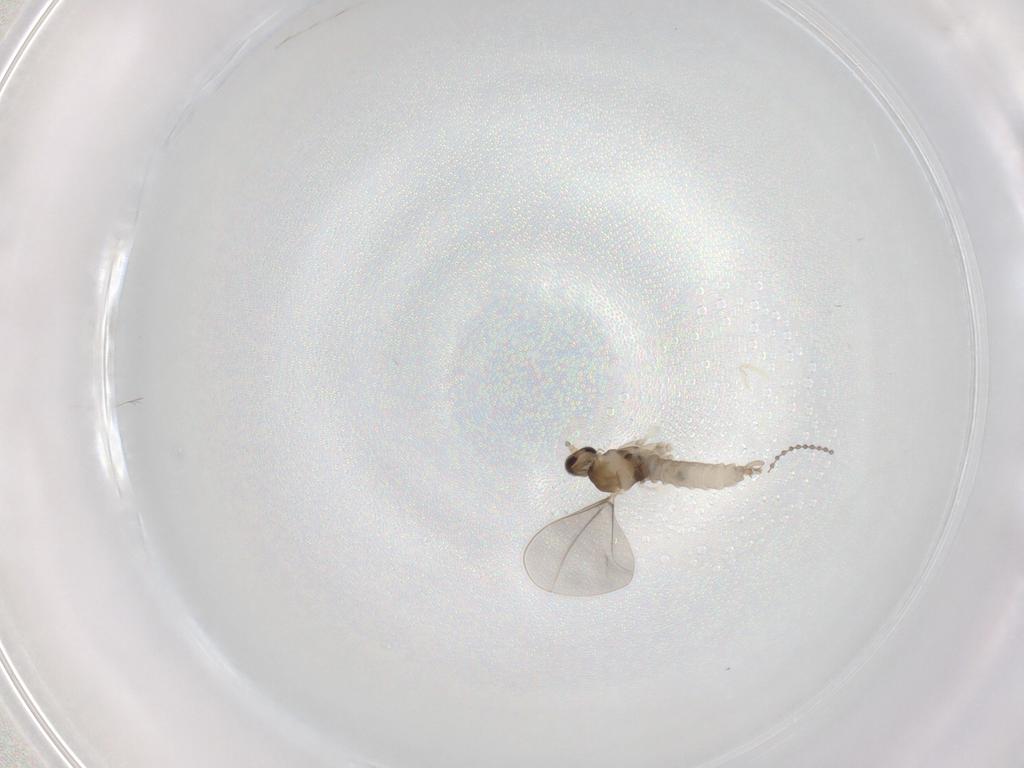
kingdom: Animalia
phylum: Arthropoda
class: Insecta
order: Diptera
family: Cecidomyiidae
